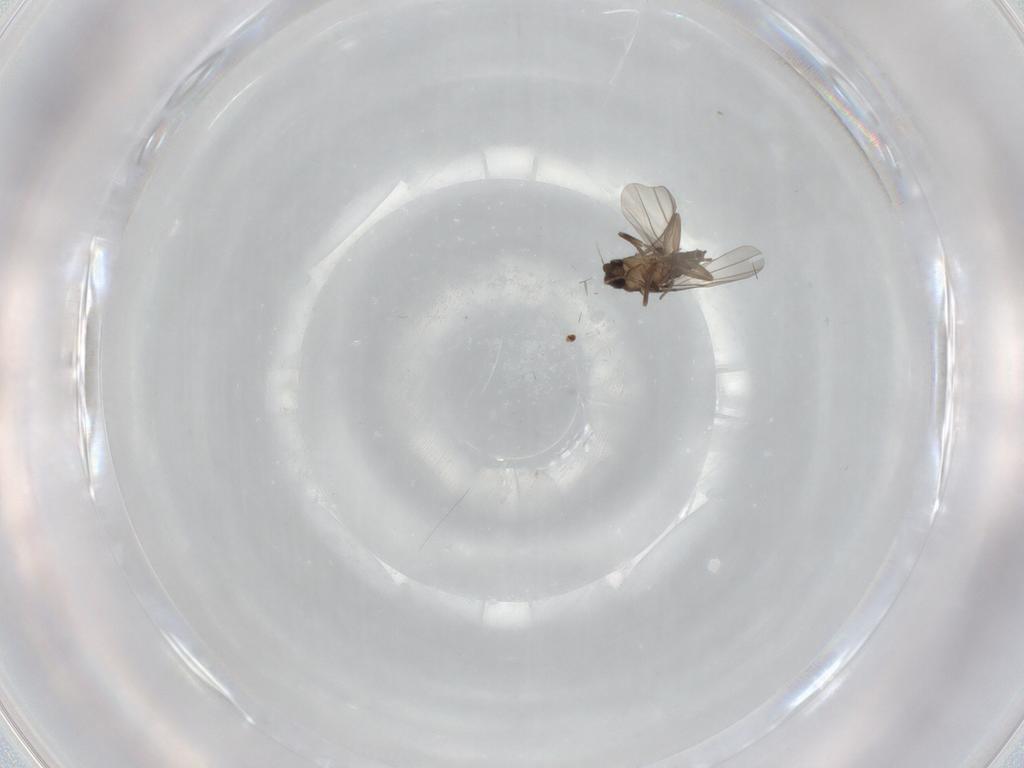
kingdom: Animalia
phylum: Arthropoda
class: Insecta
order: Diptera
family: Phoridae
